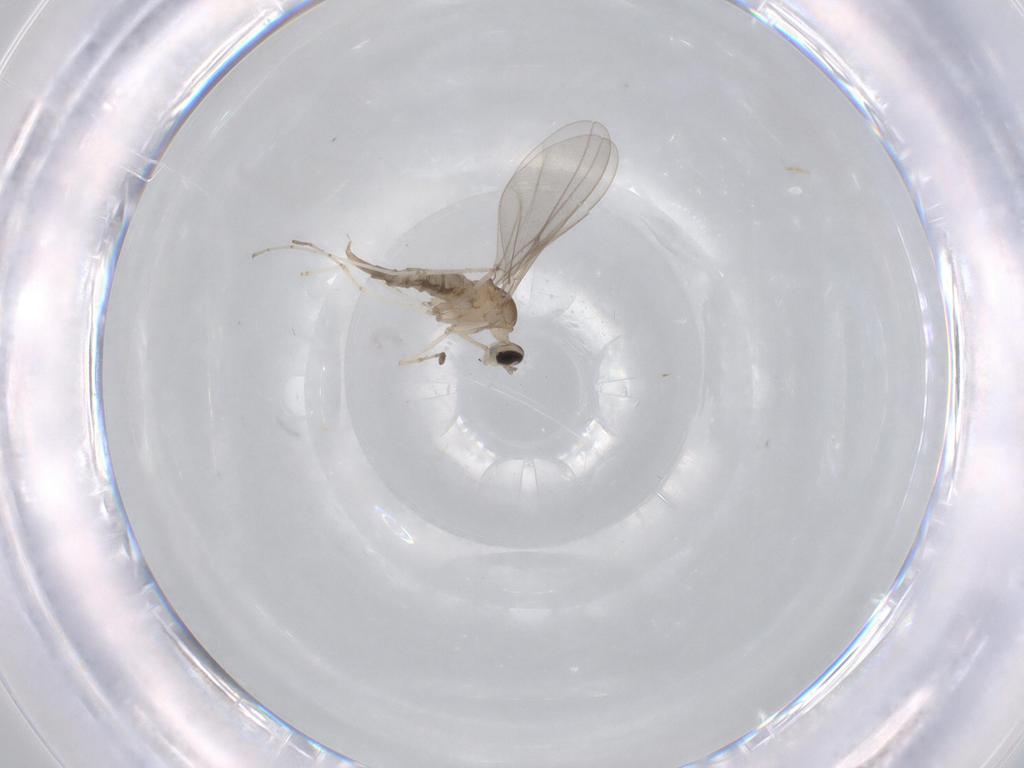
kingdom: Animalia
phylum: Arthropoda
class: Insecta
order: Diptera
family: Cecidomyiidae
